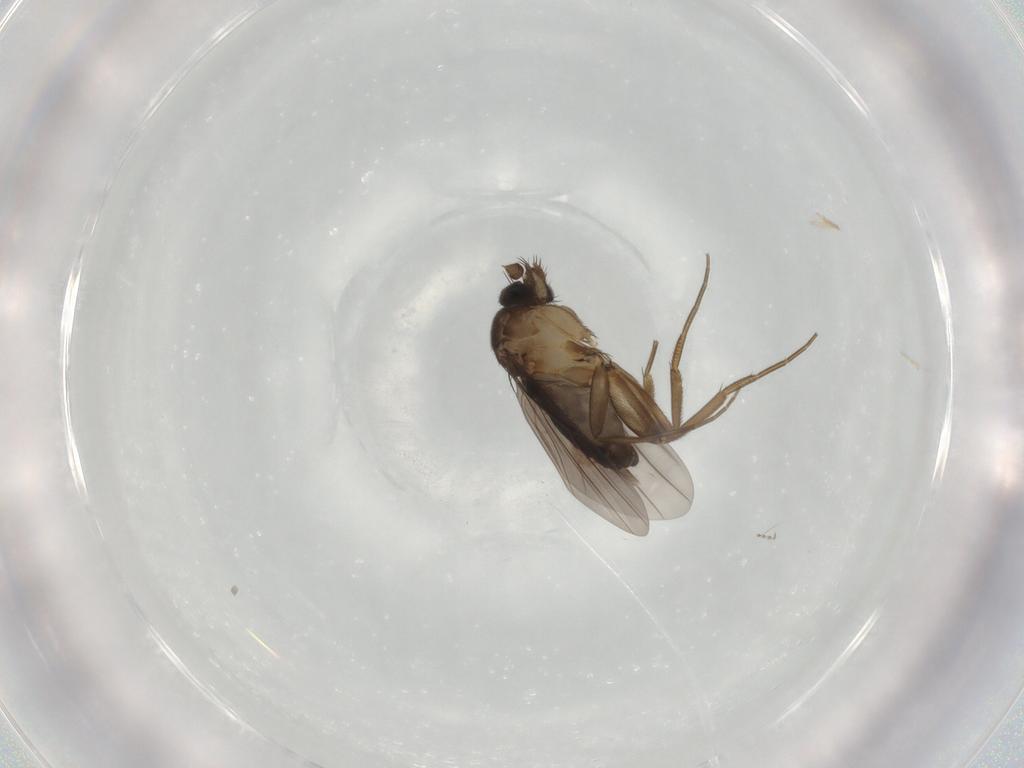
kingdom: Animalia
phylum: Arthropoda
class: Insecta
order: Diptera
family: Cecidomyiidae
